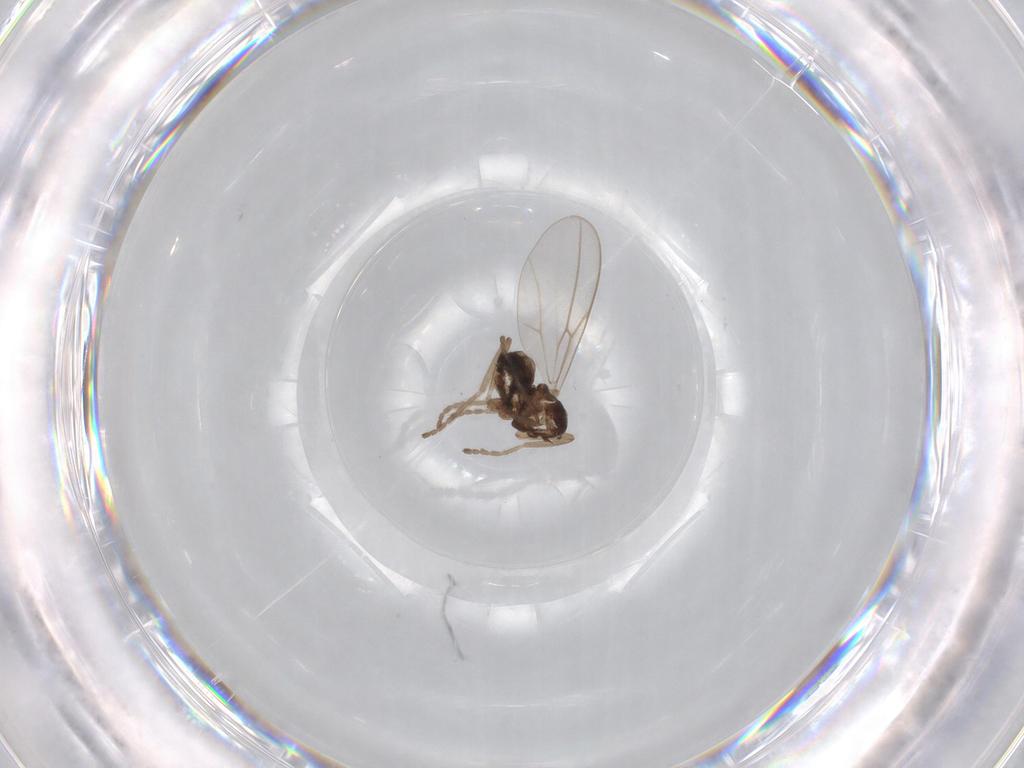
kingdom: Animalia
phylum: Arthropoda
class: Insecta
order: Diptera
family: Cecidomyiidae
